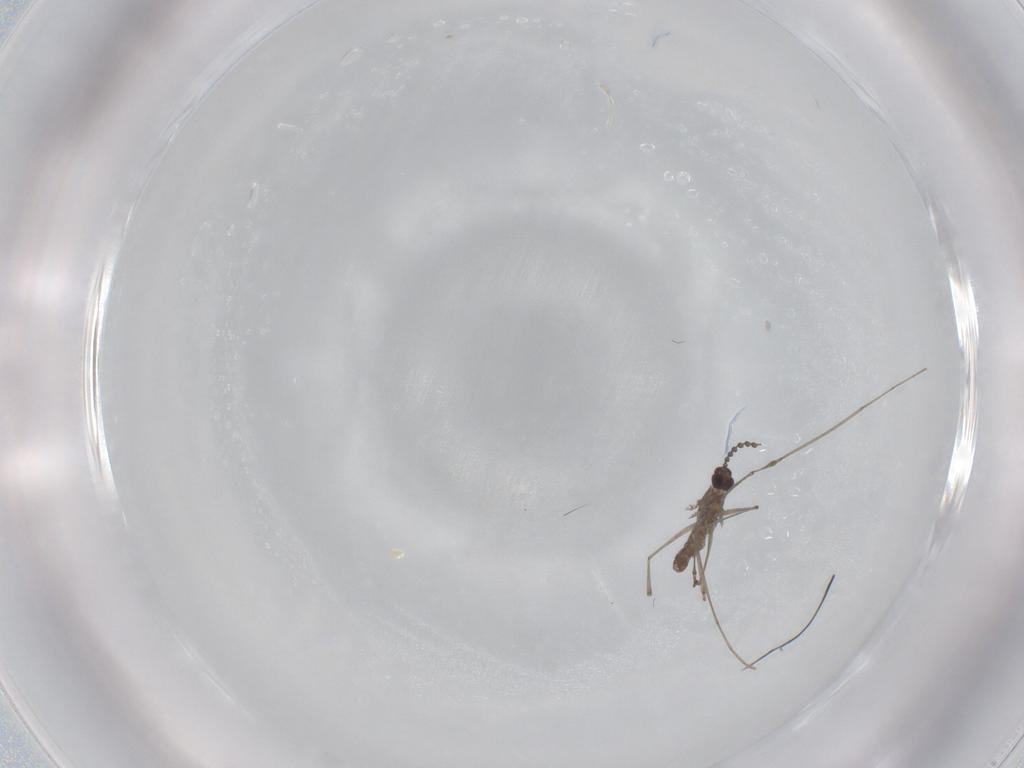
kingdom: Animalia
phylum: Arthropoda
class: Insecta
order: Diptera
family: Cecidomyiidae
